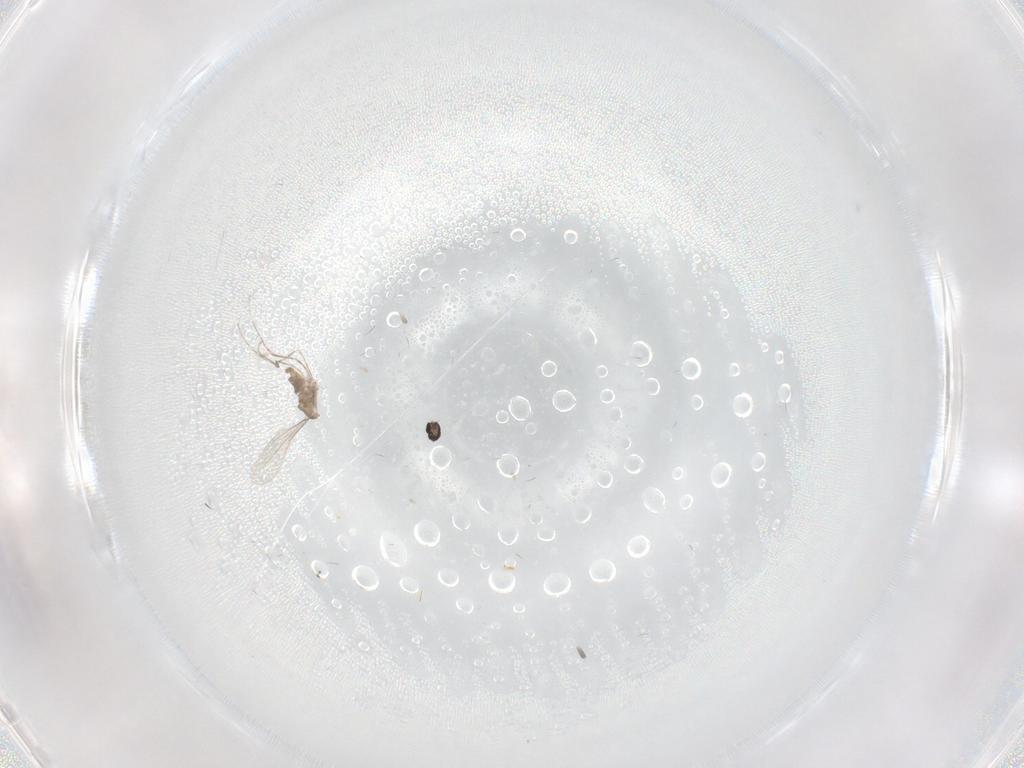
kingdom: Animalia
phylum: Arthropoda
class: Insecta
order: Diptera
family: Cecidomyiidae
